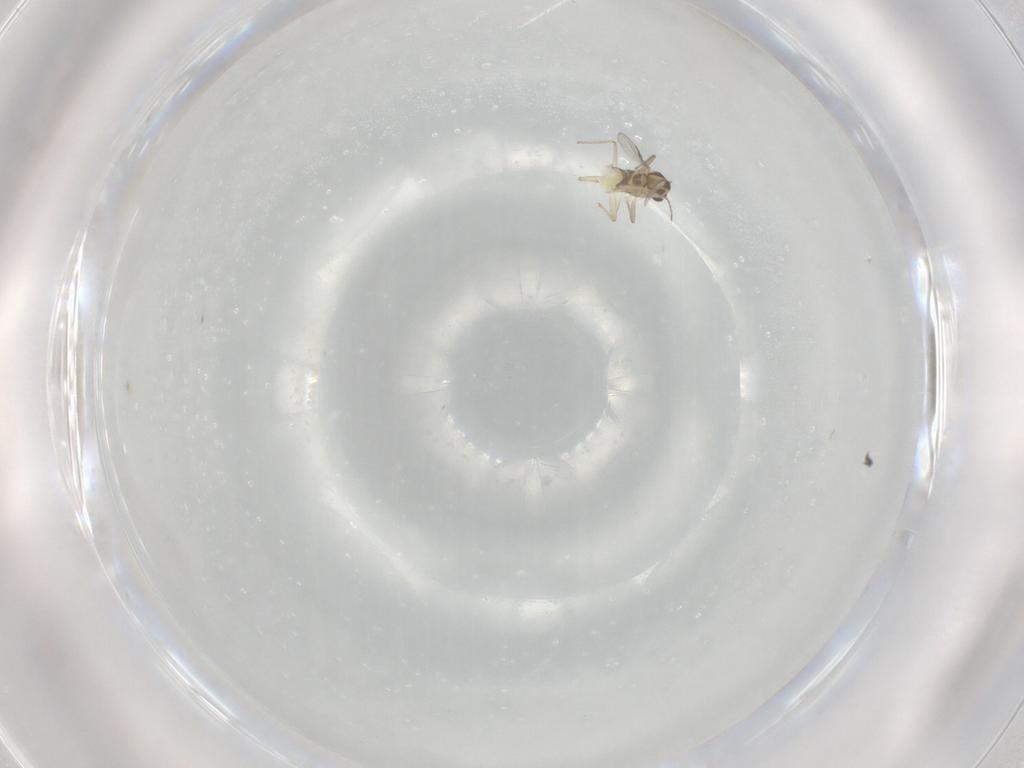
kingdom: Animalia
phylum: Arthropoda
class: Insecta
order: Diptera
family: Chironomidae
